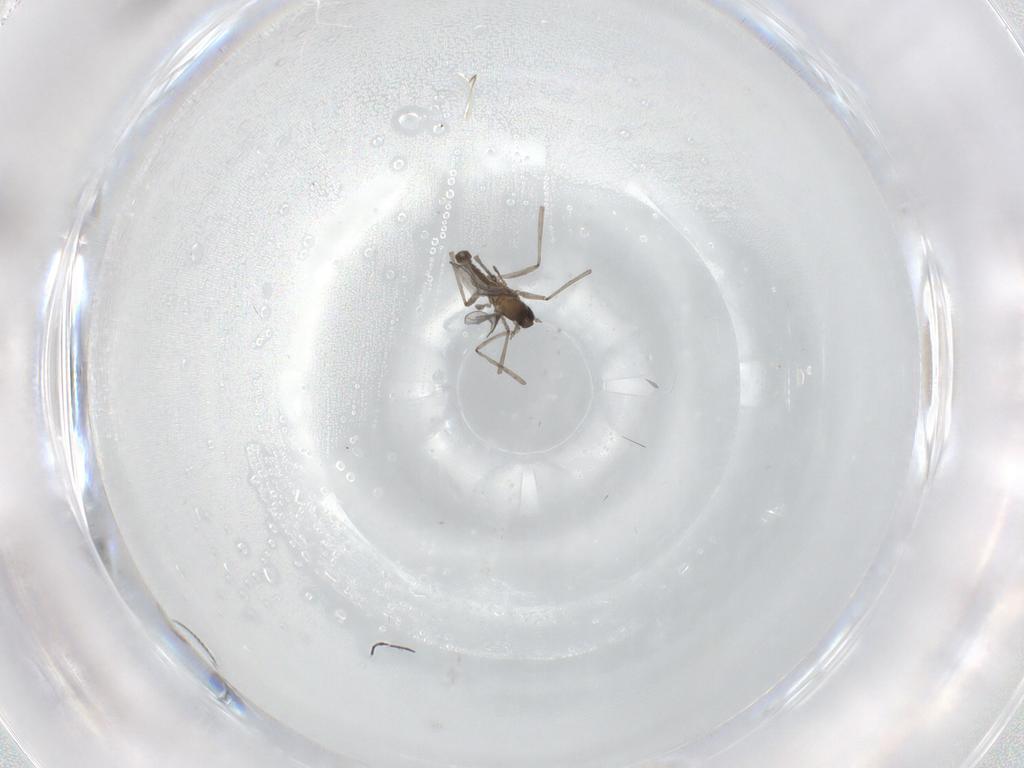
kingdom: Animalia
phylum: Arthropoda
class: Insecta
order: Diptera
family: Cecidomyiidae
